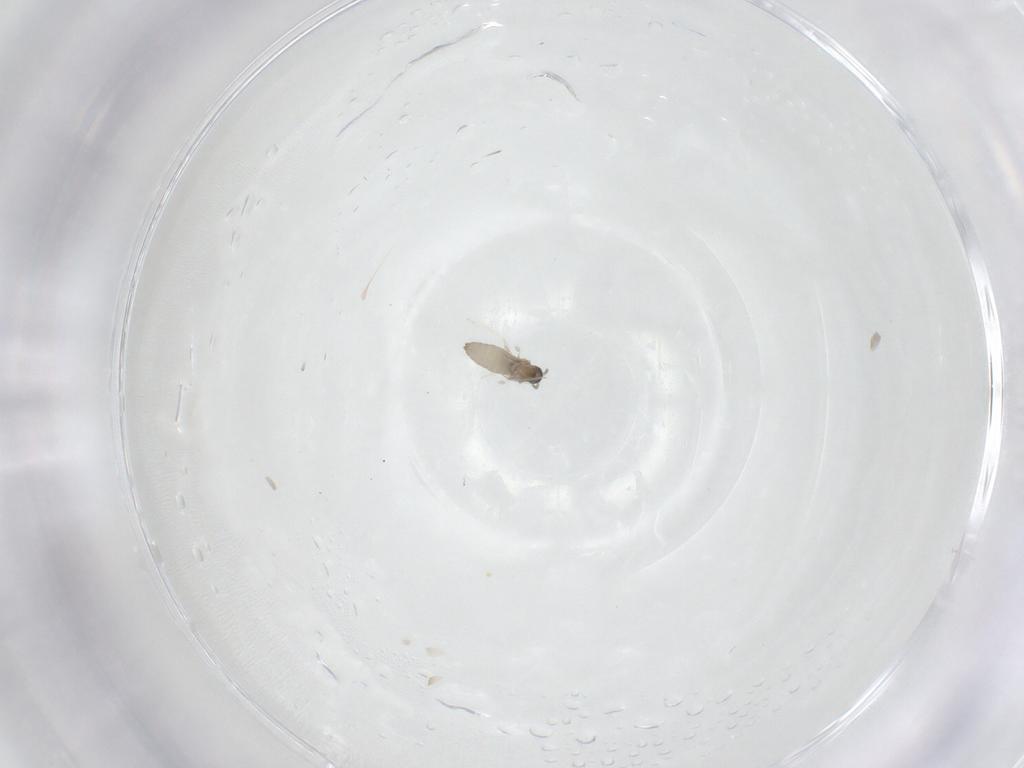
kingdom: Animalia
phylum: Arthropoda
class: Insecta
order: Diptera
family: Cecidomyiidae
